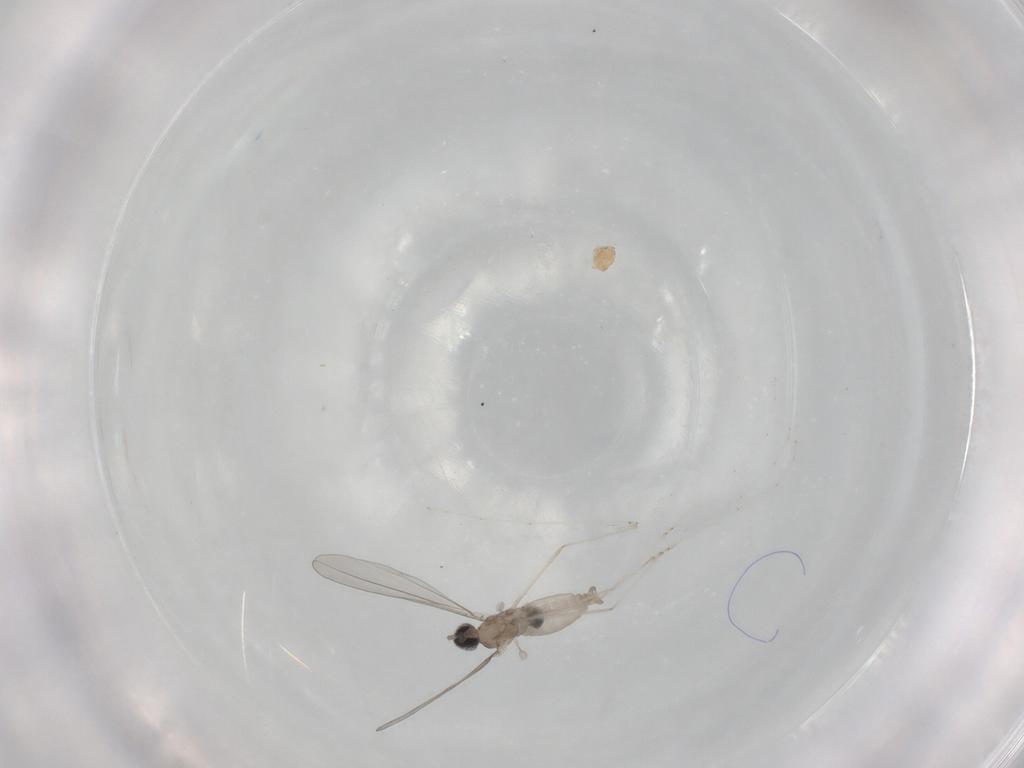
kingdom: Animalia
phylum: Arthropoda
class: Insecta
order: Diptera
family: Cecidomyiidae
